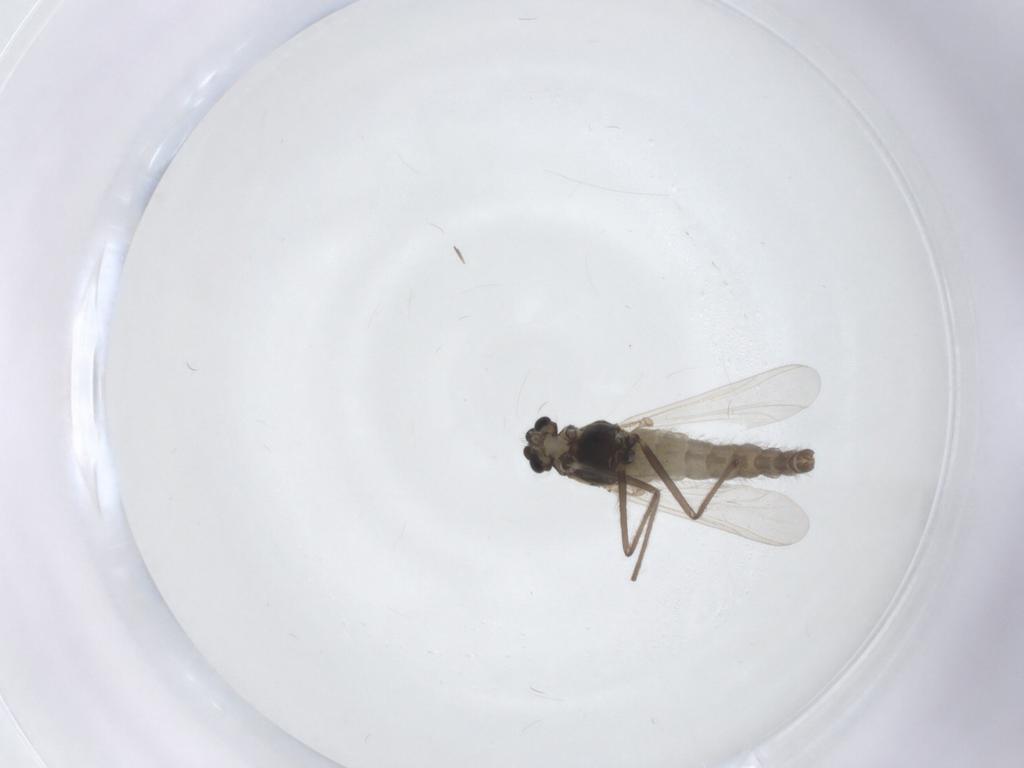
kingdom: Animalia
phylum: Arthropoda
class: Insecta
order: Diptera
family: Chironomidae
